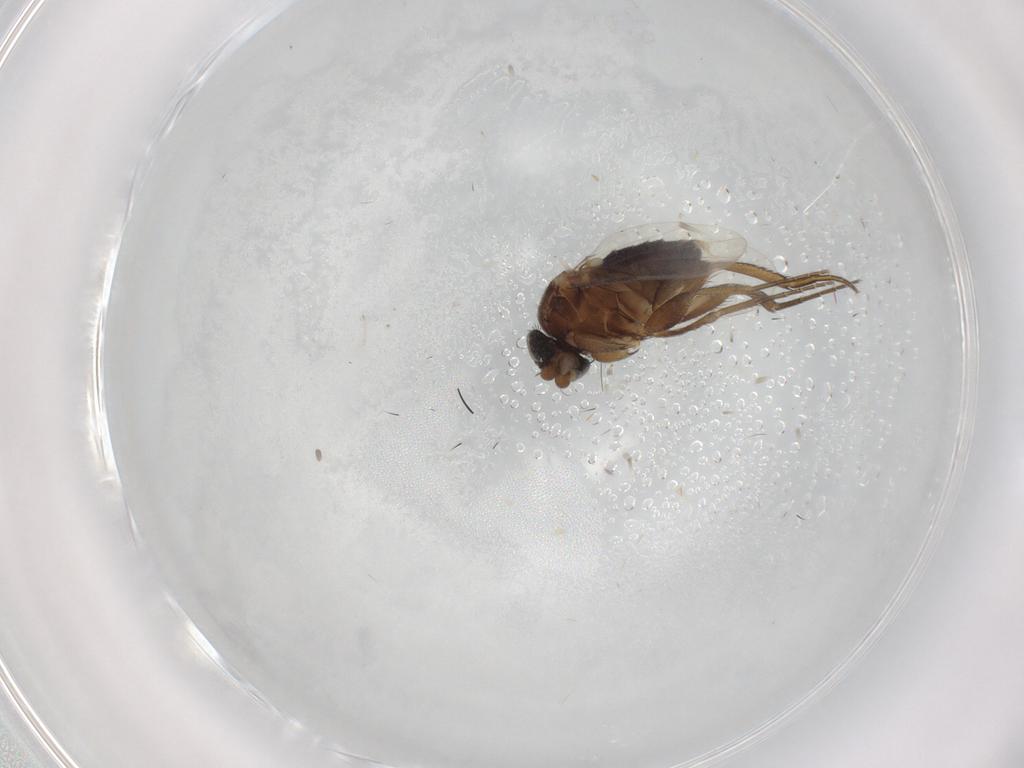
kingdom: Animalia
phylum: Arthropoda
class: Insecta
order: Diptera
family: Phoridae
